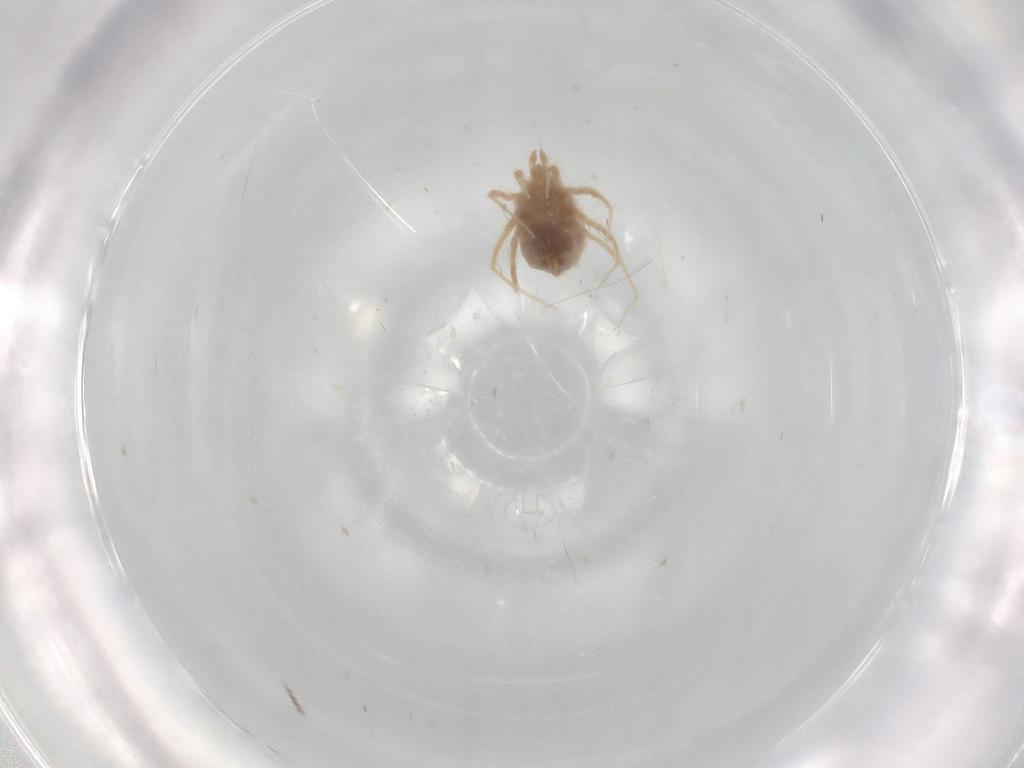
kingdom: Animalia
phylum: Arthropoda
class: Arachnida
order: Araneae
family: Philodromidae
